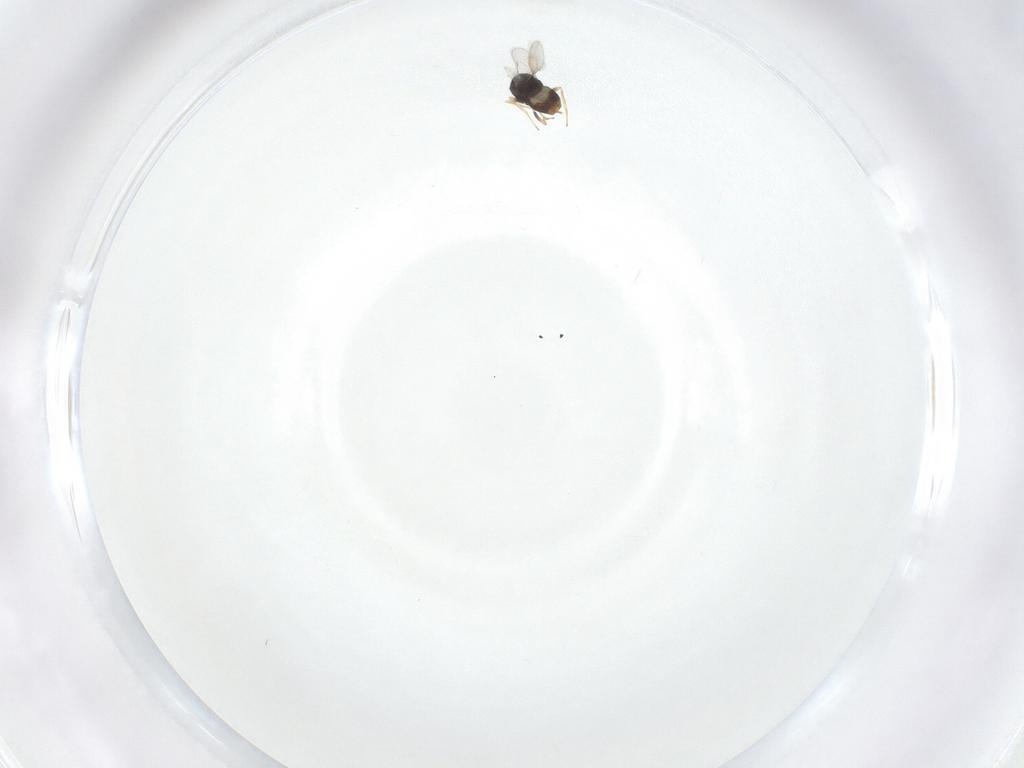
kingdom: Animalia
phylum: Arthropoda
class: Insecta
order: Hymenoptera
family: Aphelinidae
